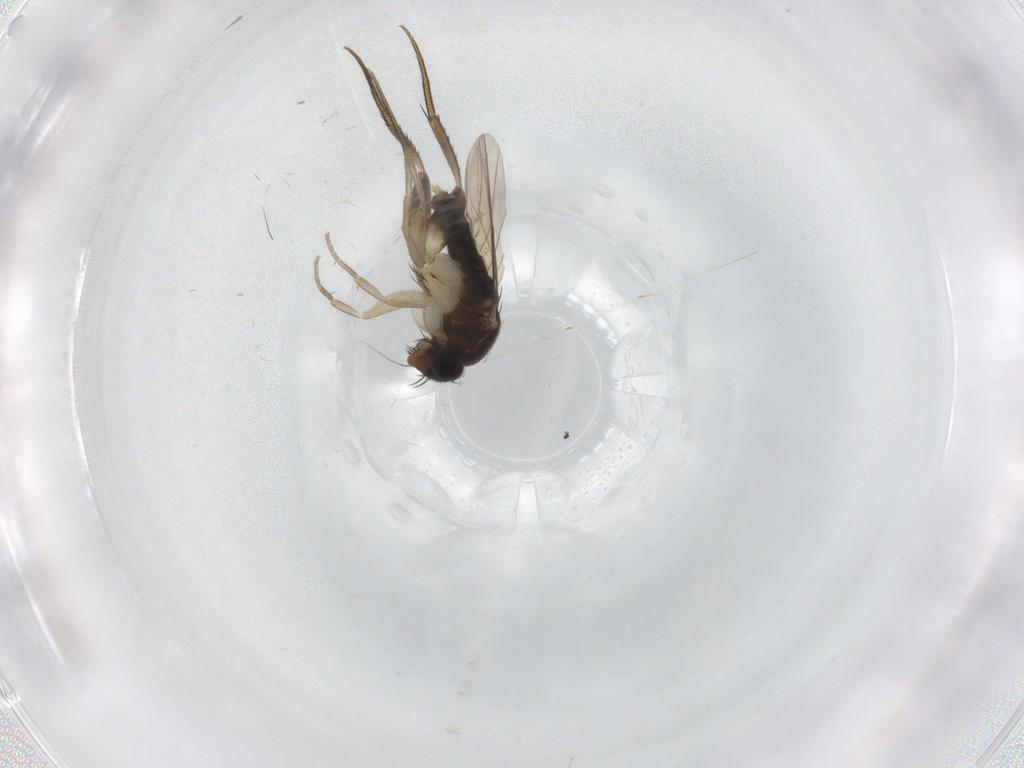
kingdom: Animalia
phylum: Arthropoda
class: Insecta
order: Diptera
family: Phoridae
